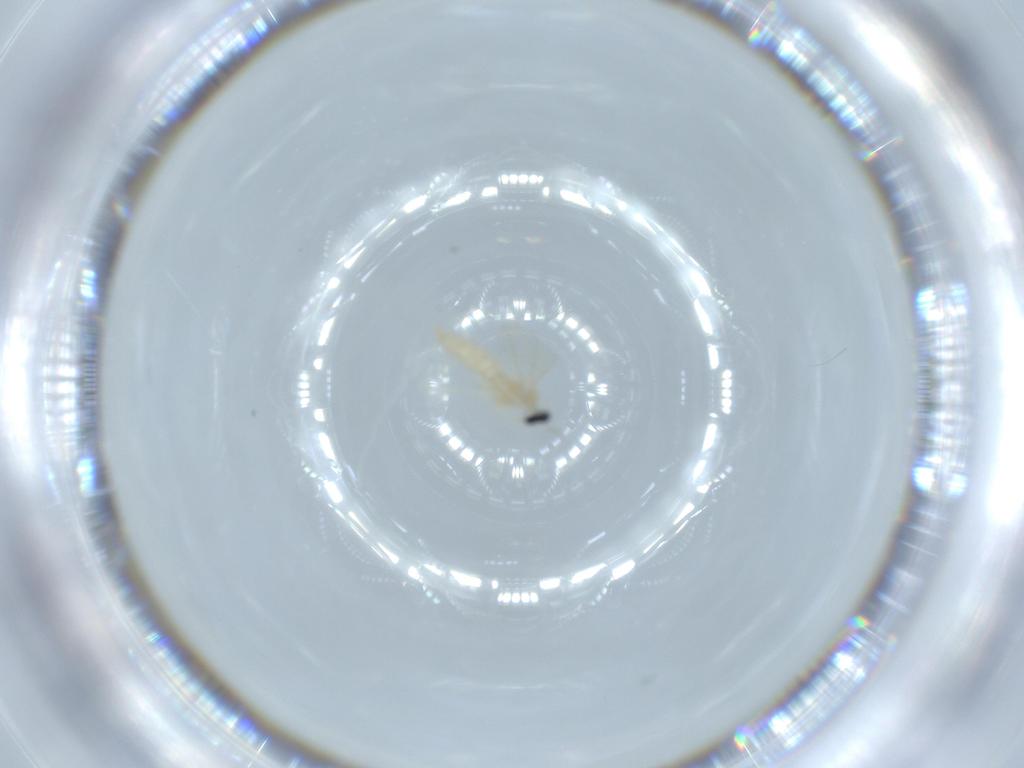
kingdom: Animalia
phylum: Arthropoda
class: Insecta
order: Diptera
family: Cecidomyiidae
